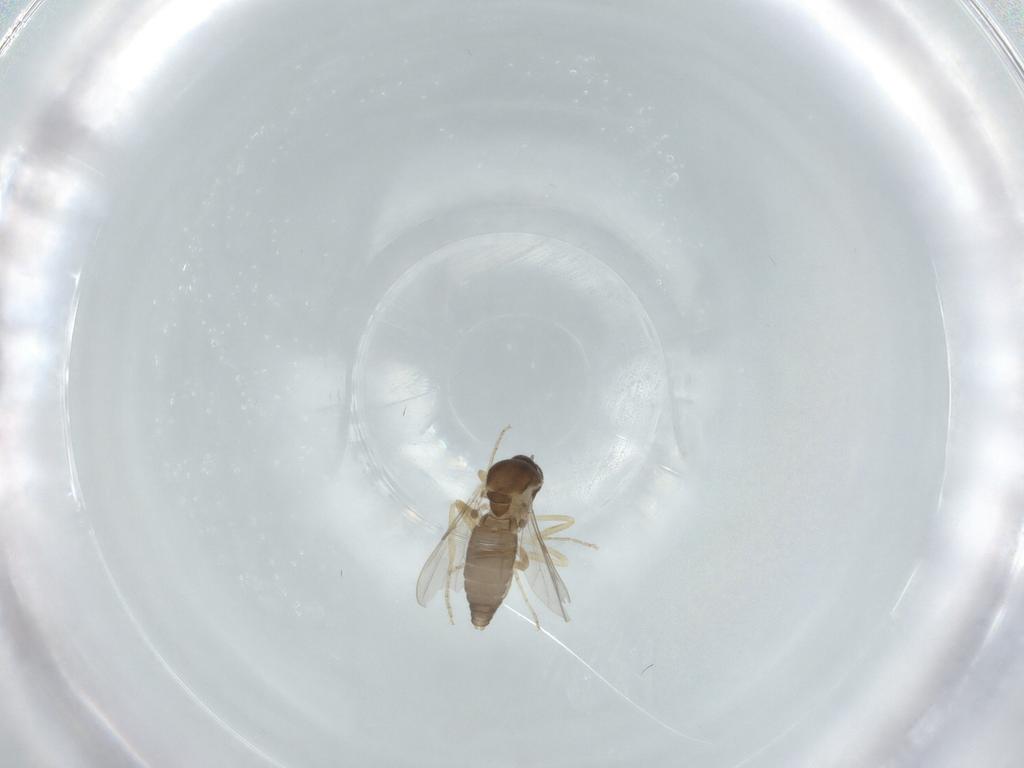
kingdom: Animalia
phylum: Arthropoda
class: Insecta
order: Diptera
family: Ceratopogonidae
